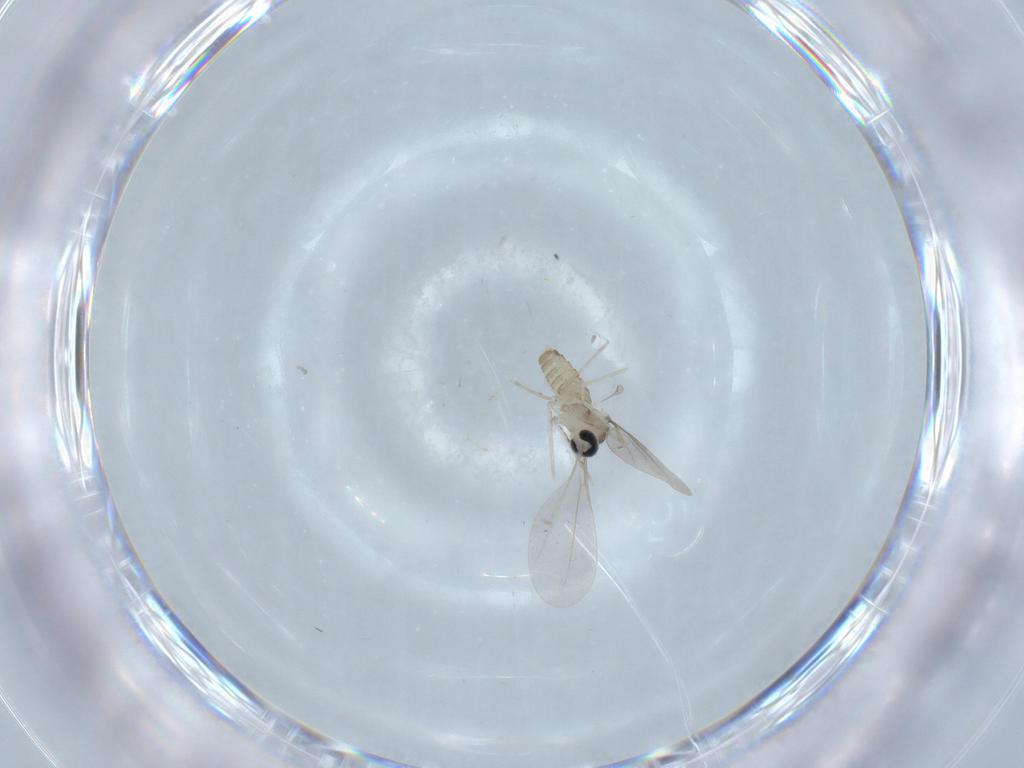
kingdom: Animalia
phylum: Arthropoda
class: Insecta
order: Diptera
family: Cecidomyiidae
